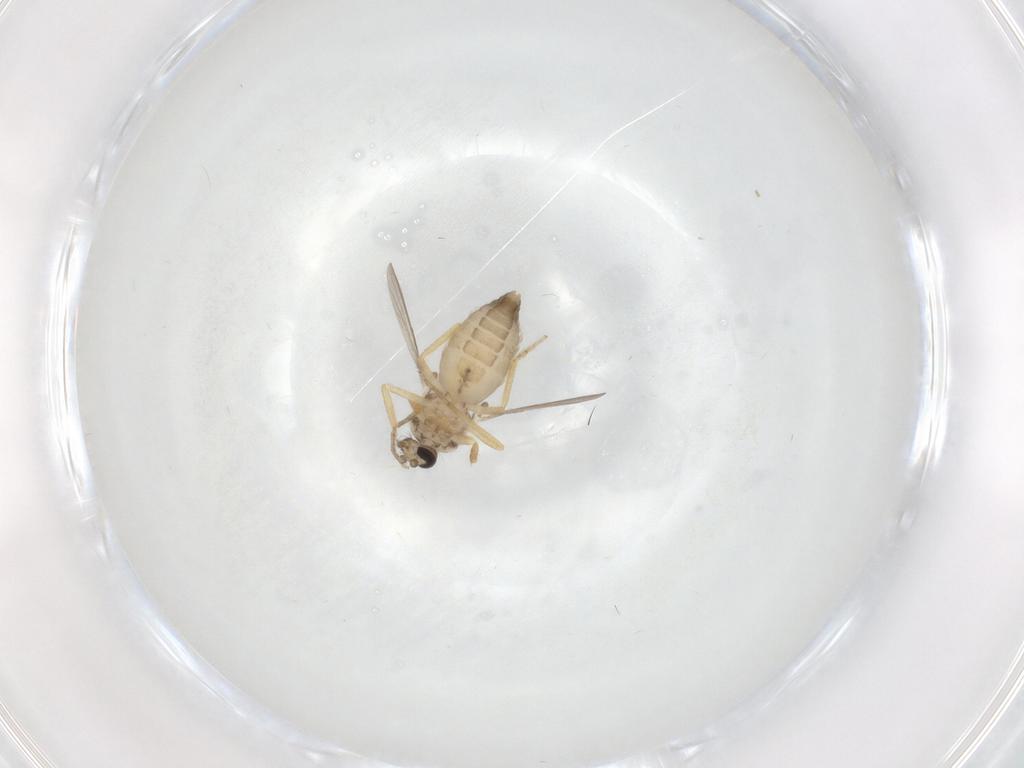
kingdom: Animalia
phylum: Arthropoda
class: Insecta
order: Diptera
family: Ceratopogonidae
